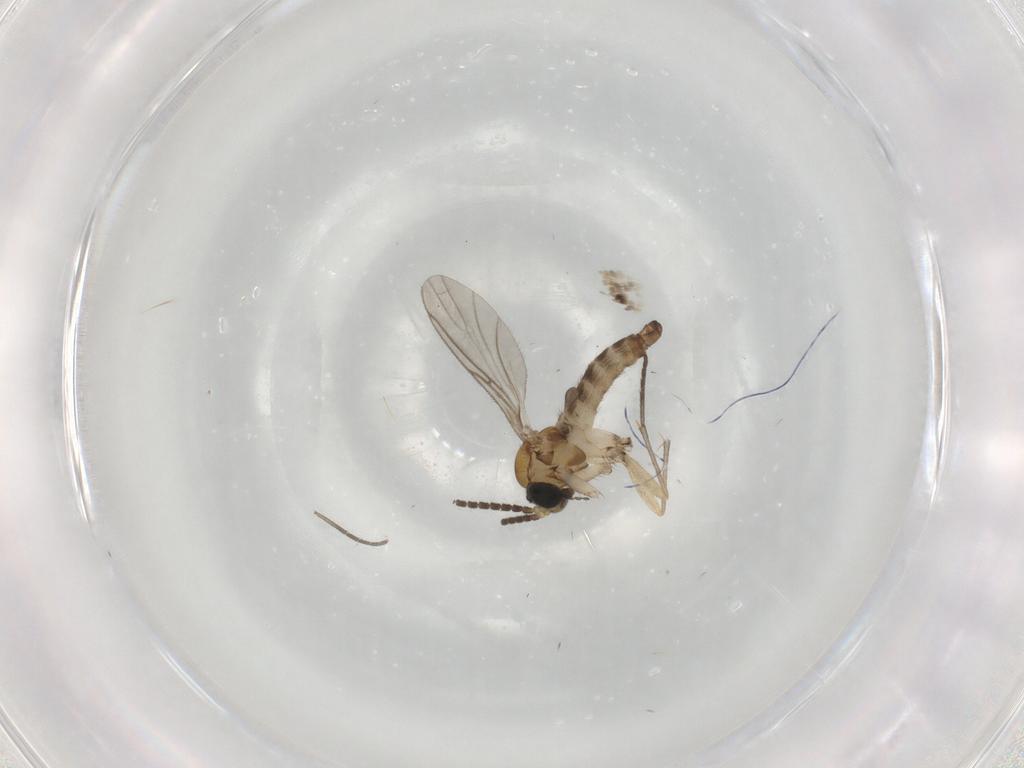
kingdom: Animalia
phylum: Arthropoda
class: Insecta
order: Diptera
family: Sciaridae
